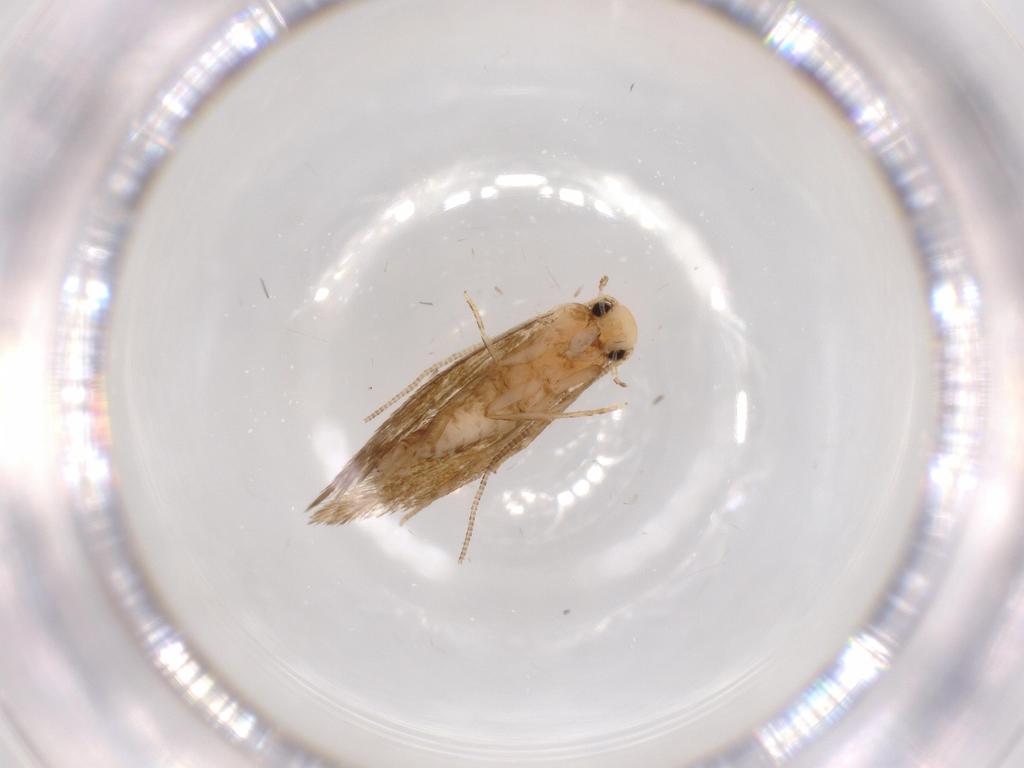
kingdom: Animalia
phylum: Arthropoda
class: Insecta
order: Lepidoptera
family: Tineidae
